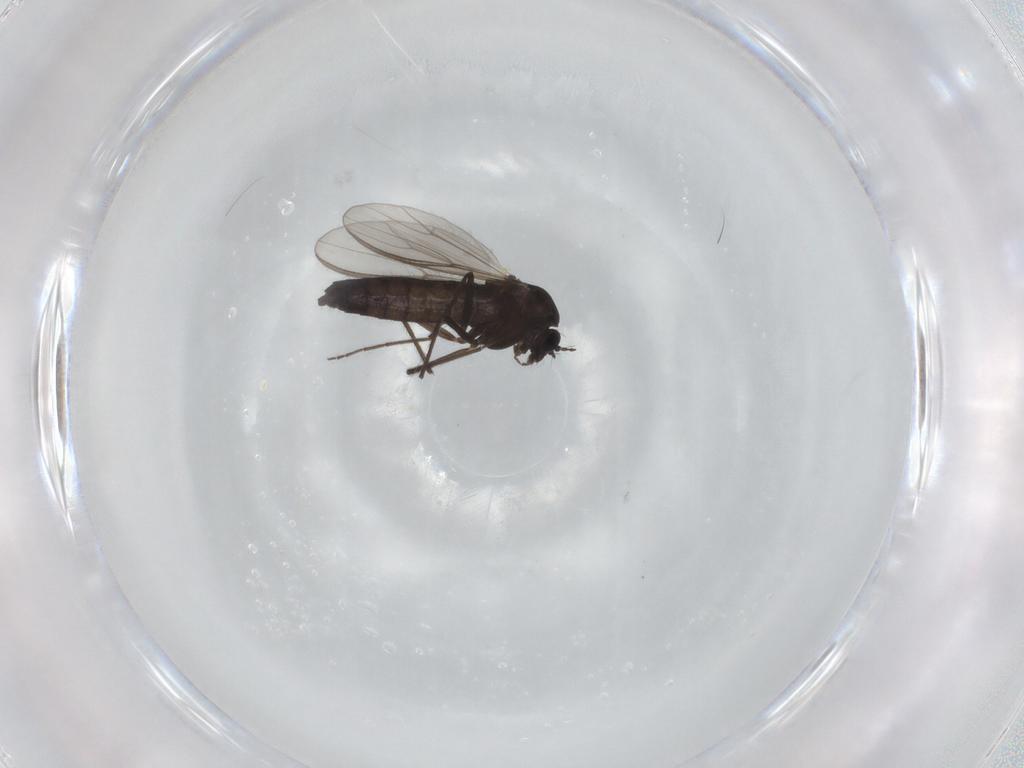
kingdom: Animalia
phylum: Arthropoda
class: Insecta
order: Diptera
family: Chironomidae
